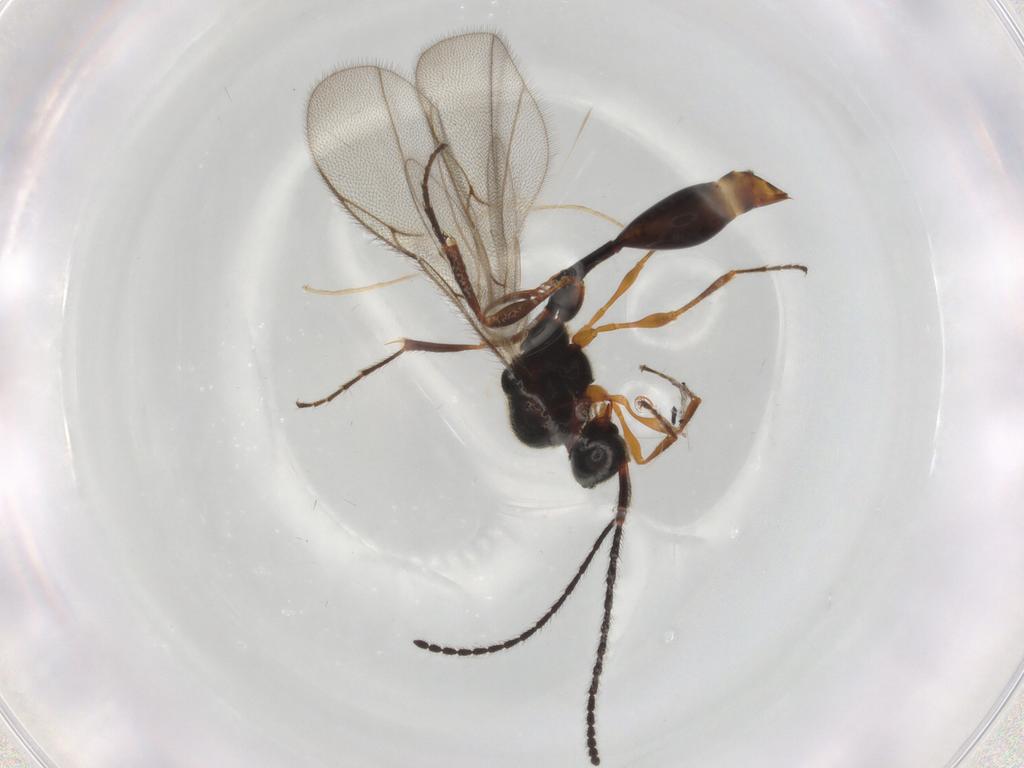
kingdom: Animalia
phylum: Arthropoda
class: Insecta
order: Hymenoptera
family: Diapriidae
